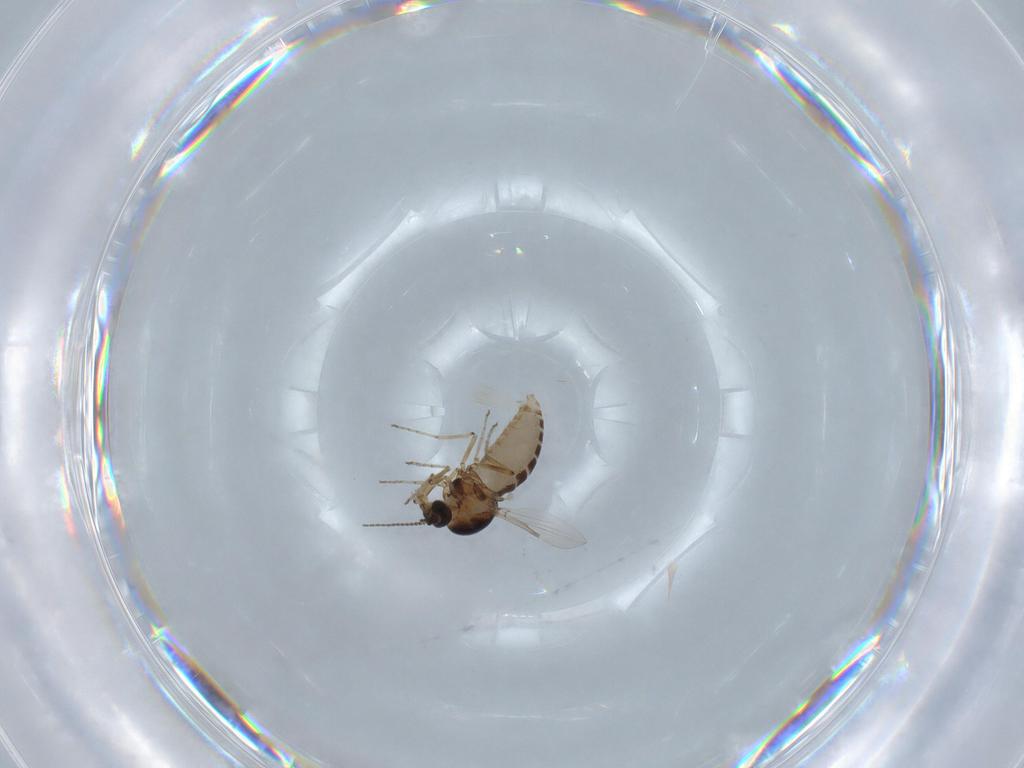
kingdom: Animalia
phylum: Arthropoda
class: Insecta
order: Diptera
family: Ceratopogonidae
